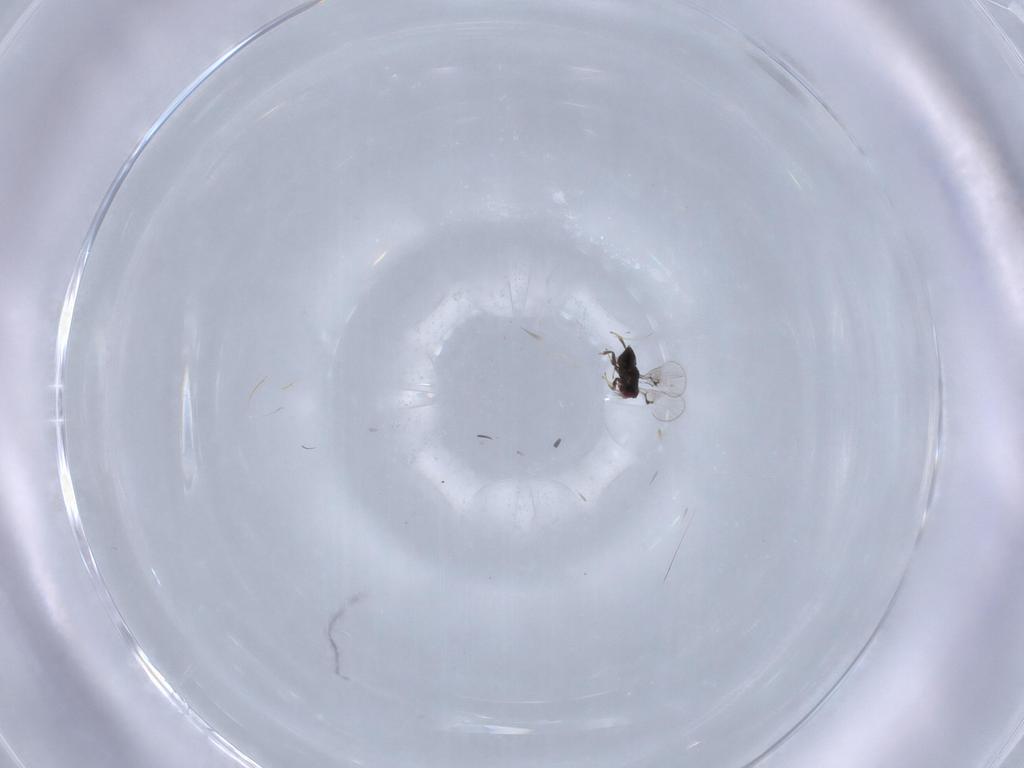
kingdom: Animalia
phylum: Arthropoda
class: Insecta
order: Hymenoptera
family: Trichogrammatidae
